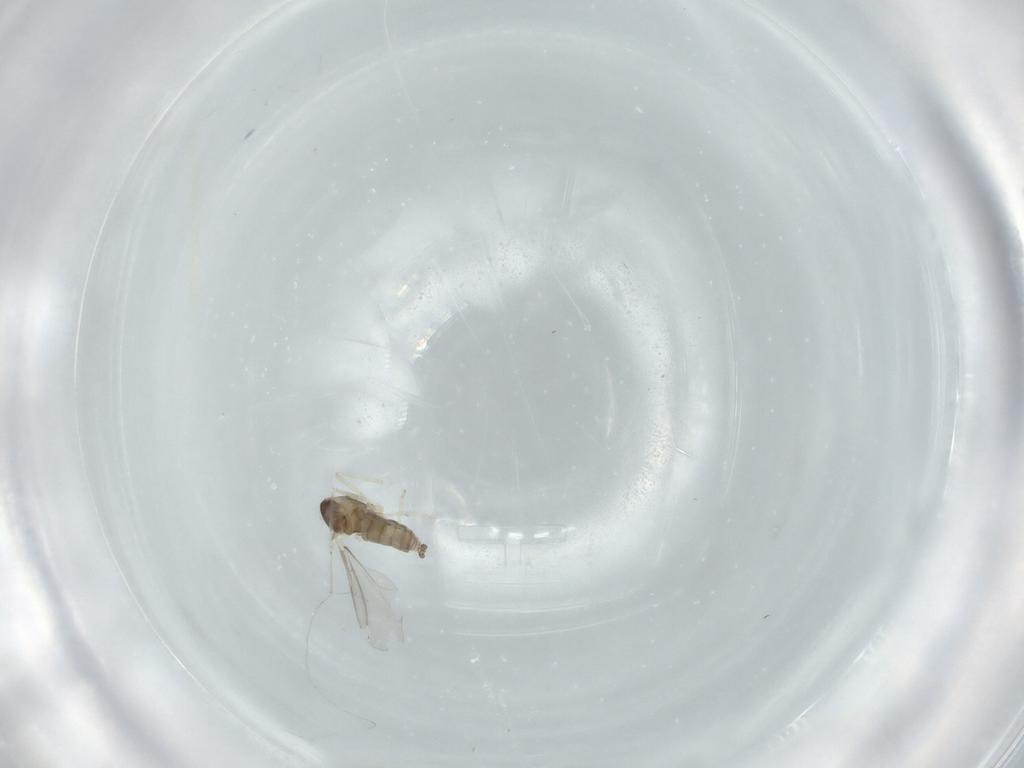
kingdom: Animalia
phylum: Arthropoda
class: Insecta
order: Diptera
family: Cecidomyiidae
